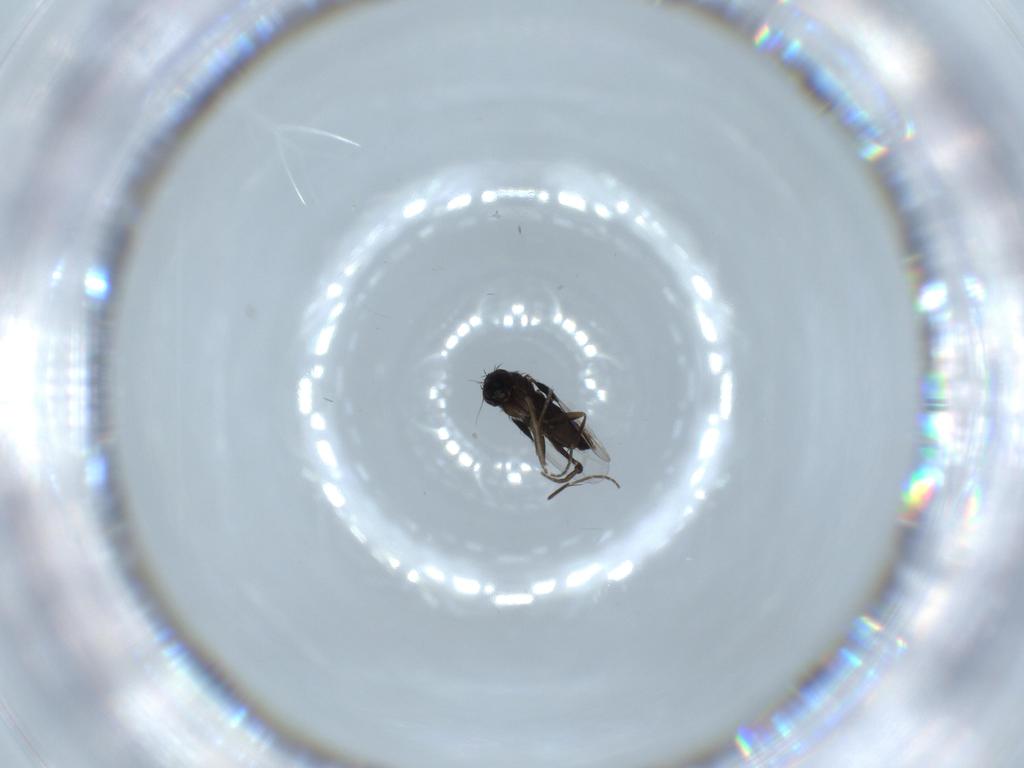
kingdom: Animalia
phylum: Arthropoda
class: Insecta
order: Diptera
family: Phoridae
